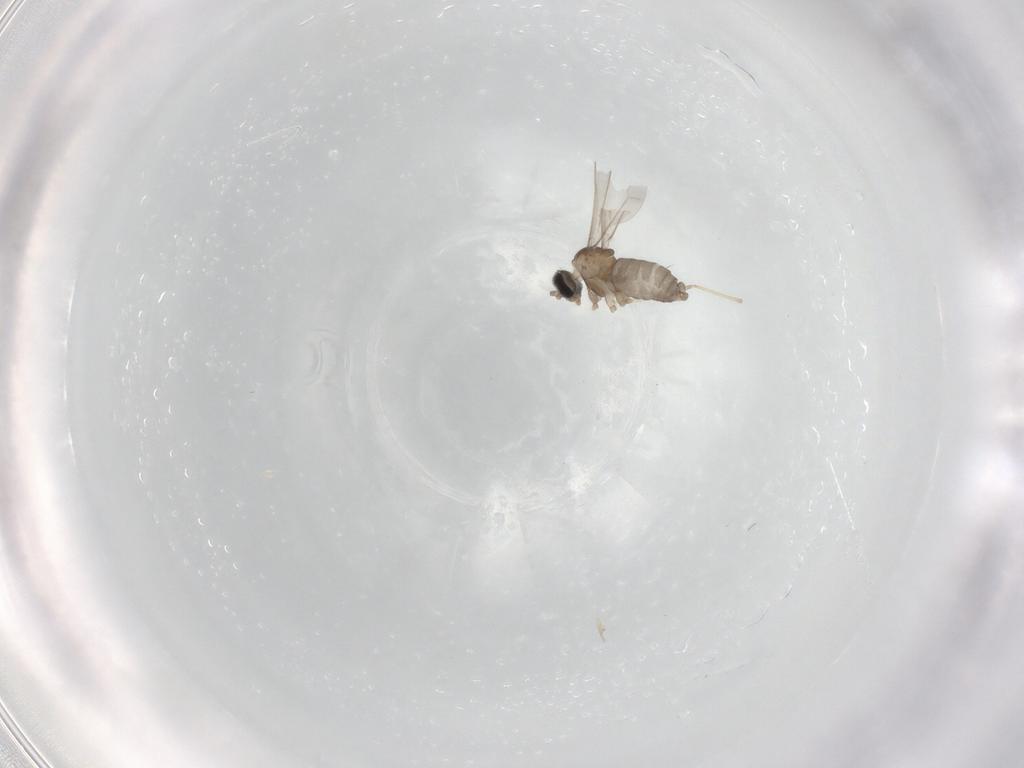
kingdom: Animalia
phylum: Arthropoda
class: Insecta
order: Diptera
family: Cecidomyiidae
